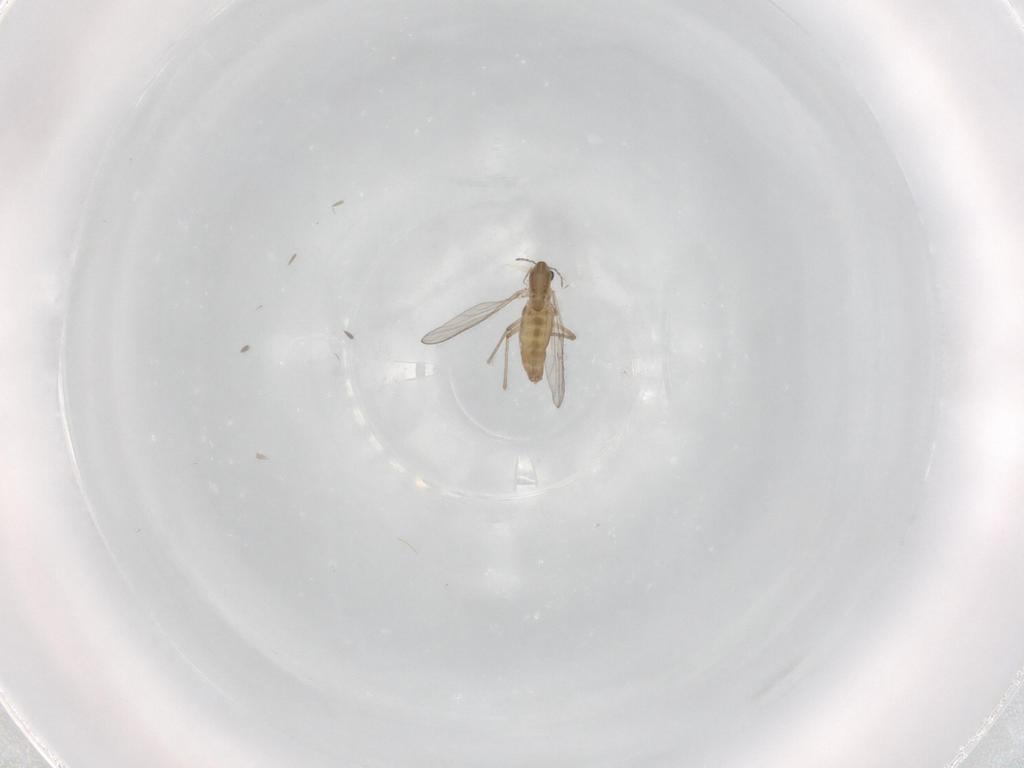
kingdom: Animalia
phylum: Arthropoda
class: Insecta
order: Diptera
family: Chironomidae
